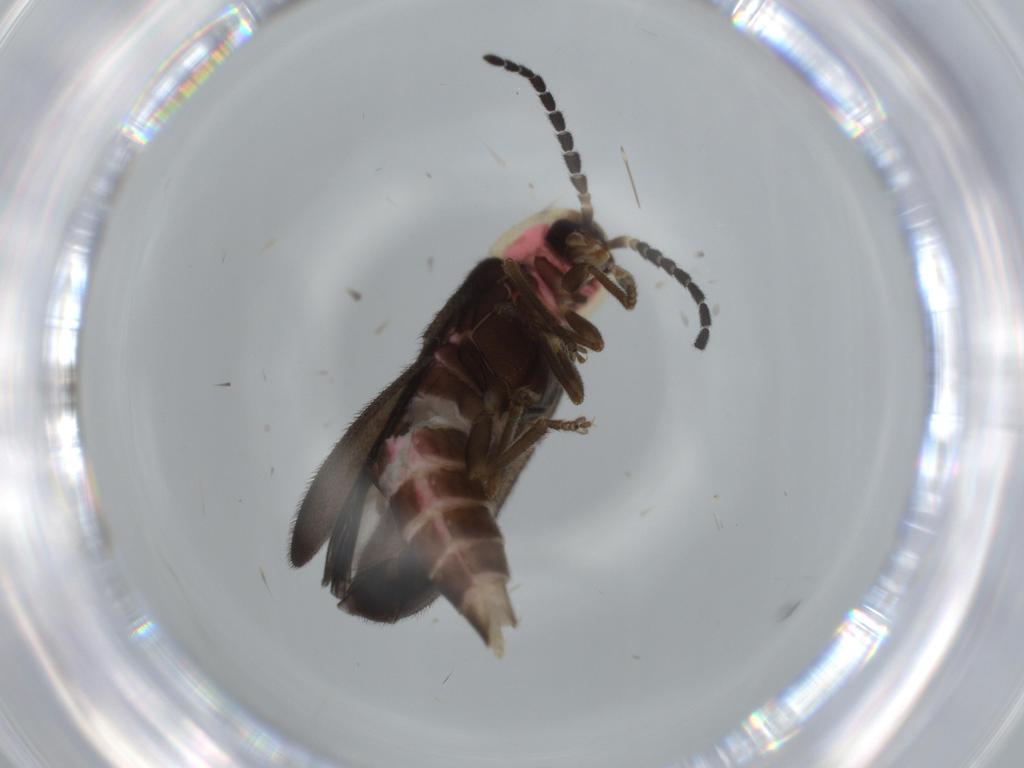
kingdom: Animalia
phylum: Arthropoda
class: Insecta
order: Coleoptera
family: Lampyridae
